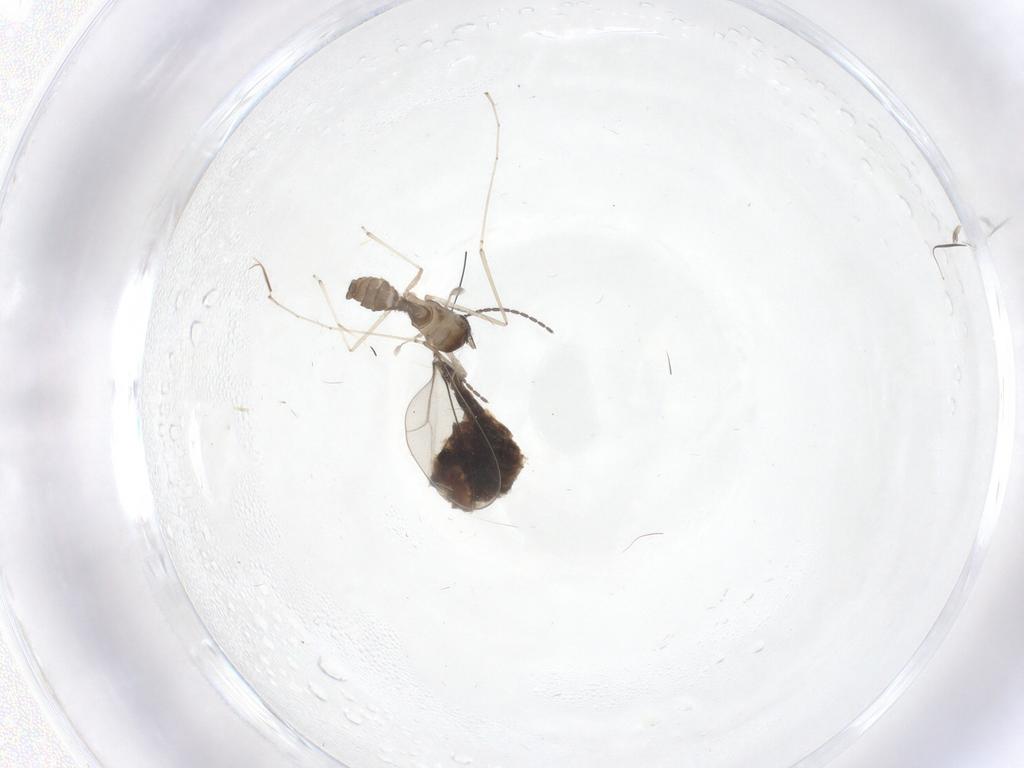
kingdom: Animalia
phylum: Arthropoda
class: Insecta
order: Diptera
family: Cecidomyiidae
